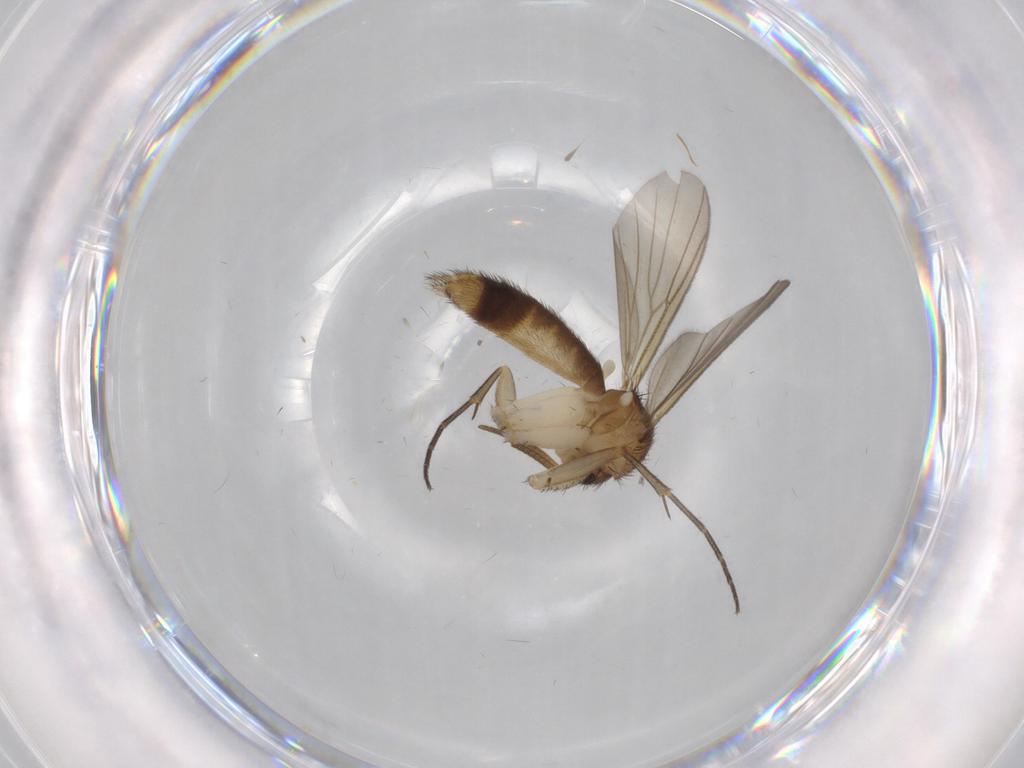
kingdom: Animalia
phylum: Arthropoda
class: Insecta
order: Diptera
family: Mycetophilidae
